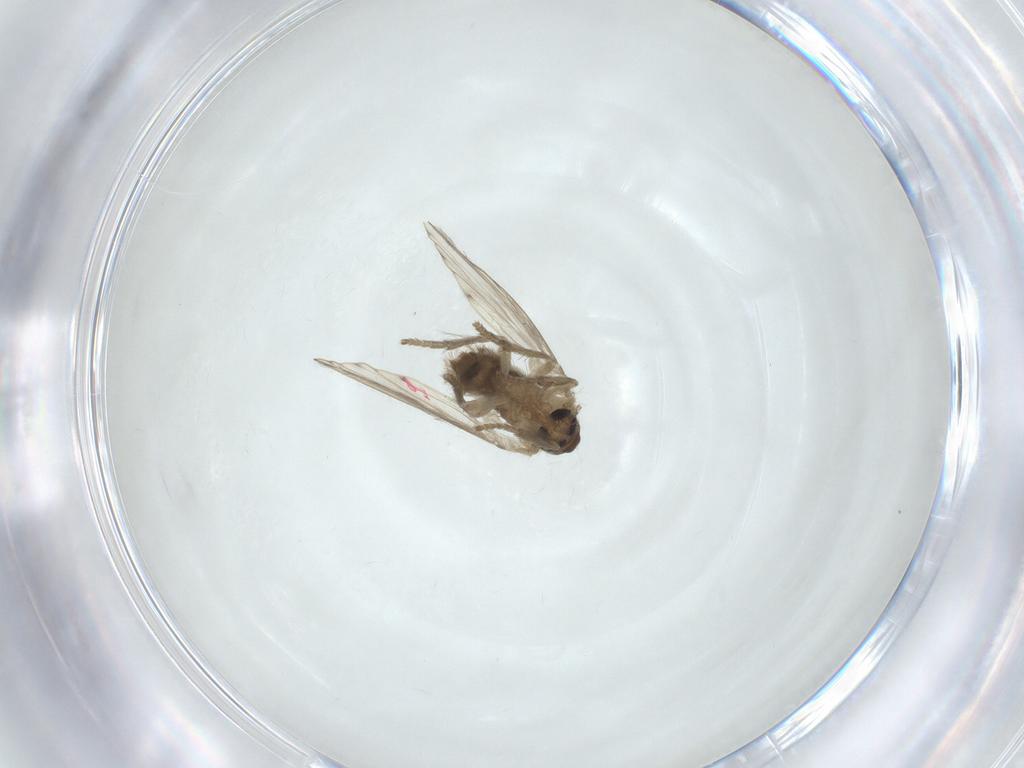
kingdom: Animalia
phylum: Arthropoda
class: Insecta
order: Diptera
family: Psychodidae
